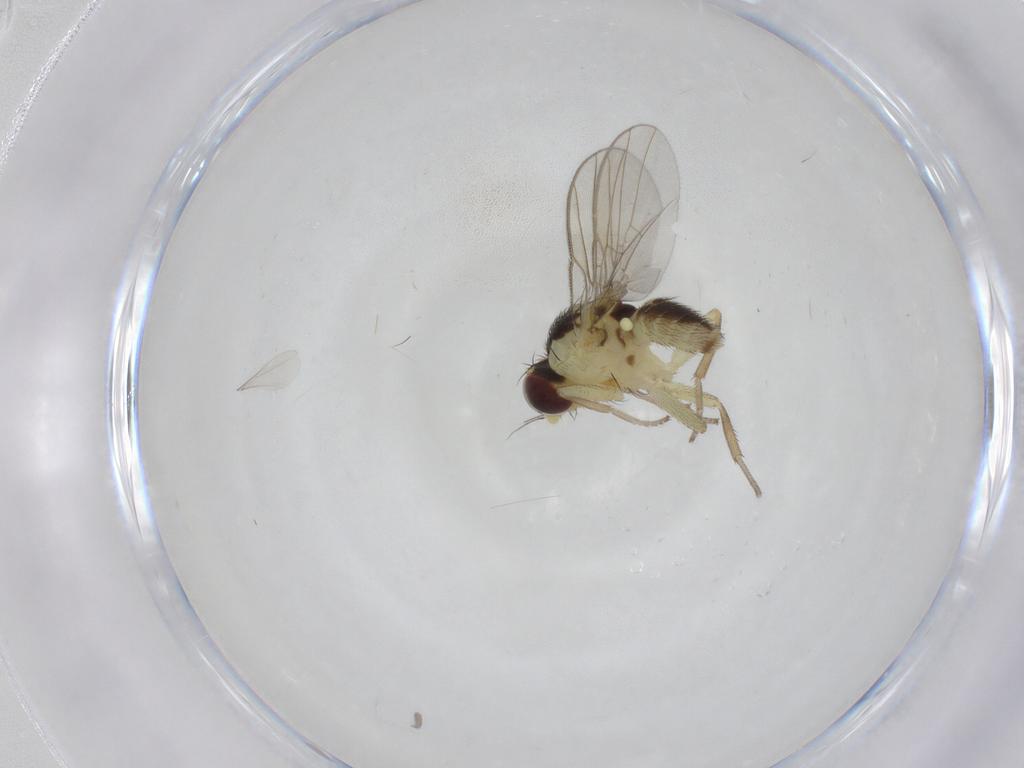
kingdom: Animalia
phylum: Arthropoda
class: Insecta
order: Diptera
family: Agromyzidae
